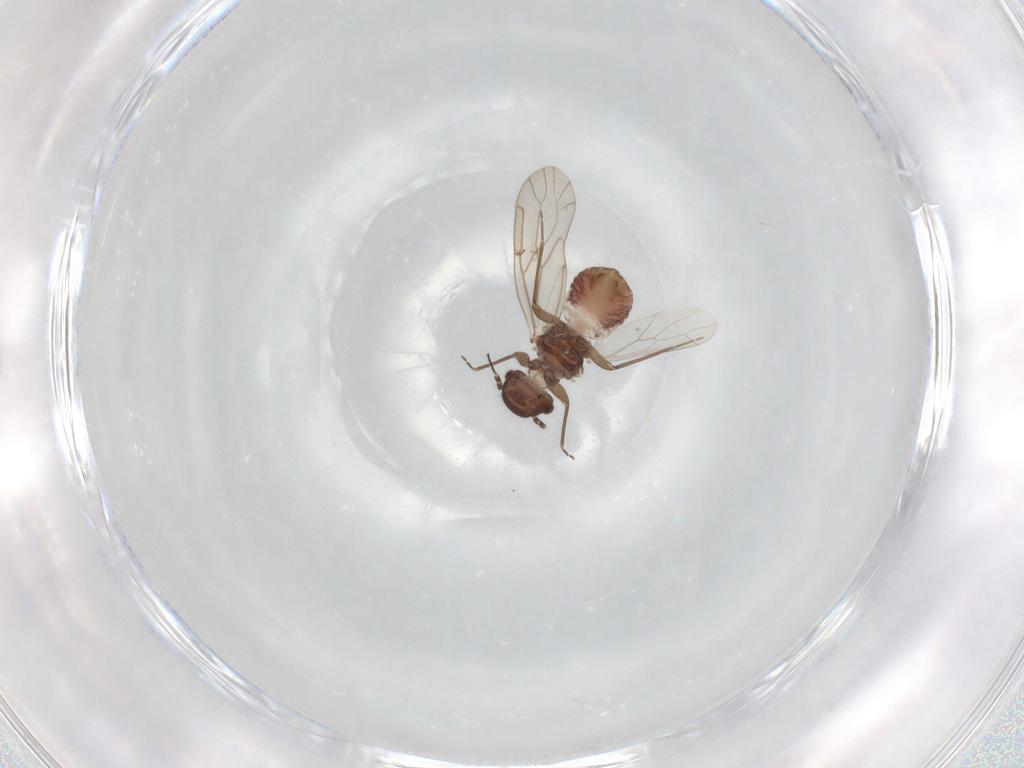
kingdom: Animalia
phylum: Arthropoda
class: Insecta
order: Psocodea
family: Ectopsocidae
